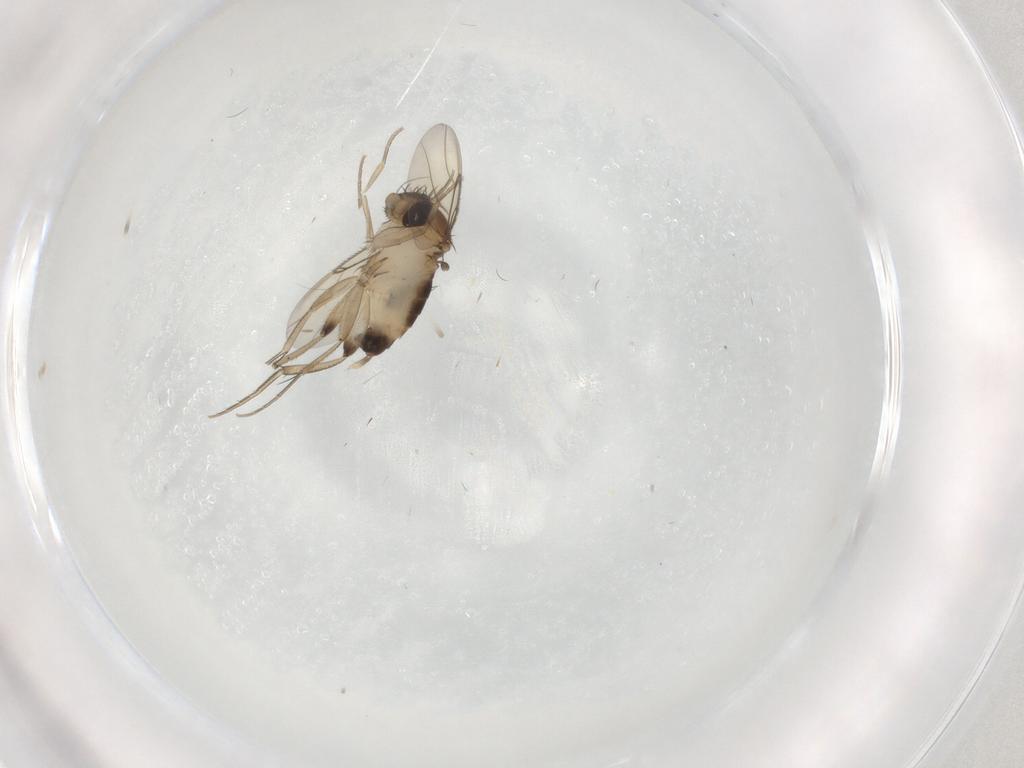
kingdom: Animalia
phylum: Arthropoda
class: Insecta
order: Diptera
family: Phoridae
